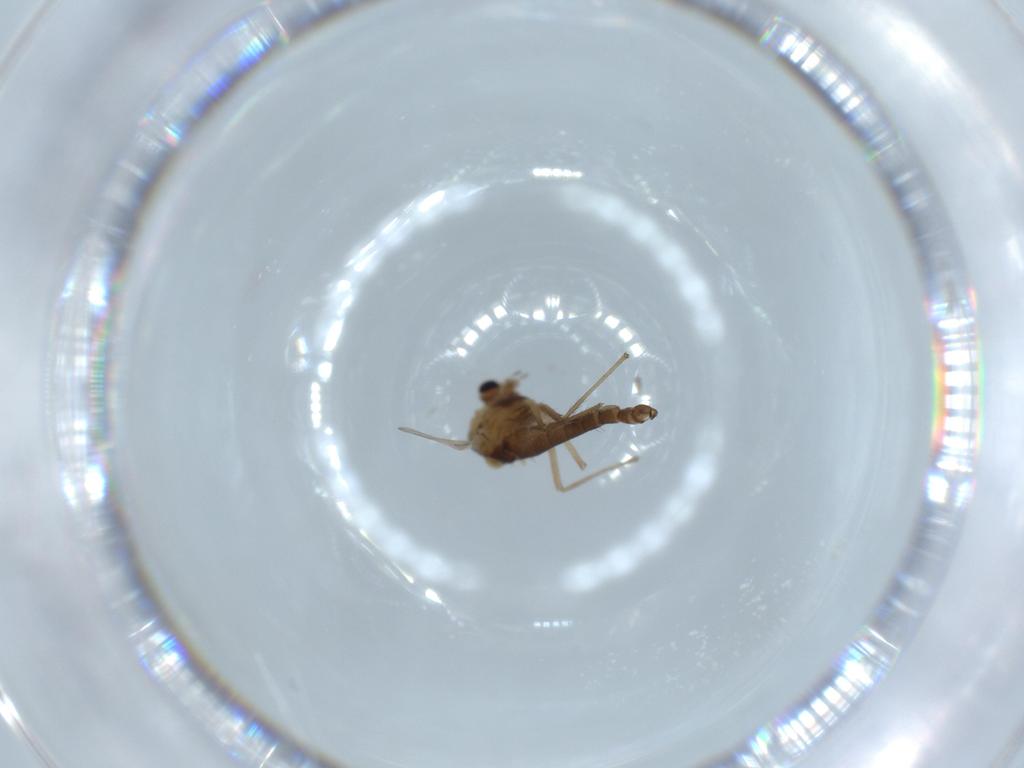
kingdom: Animalia
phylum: Arthropoda
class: Insecta
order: Diptera
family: Chironomidae
